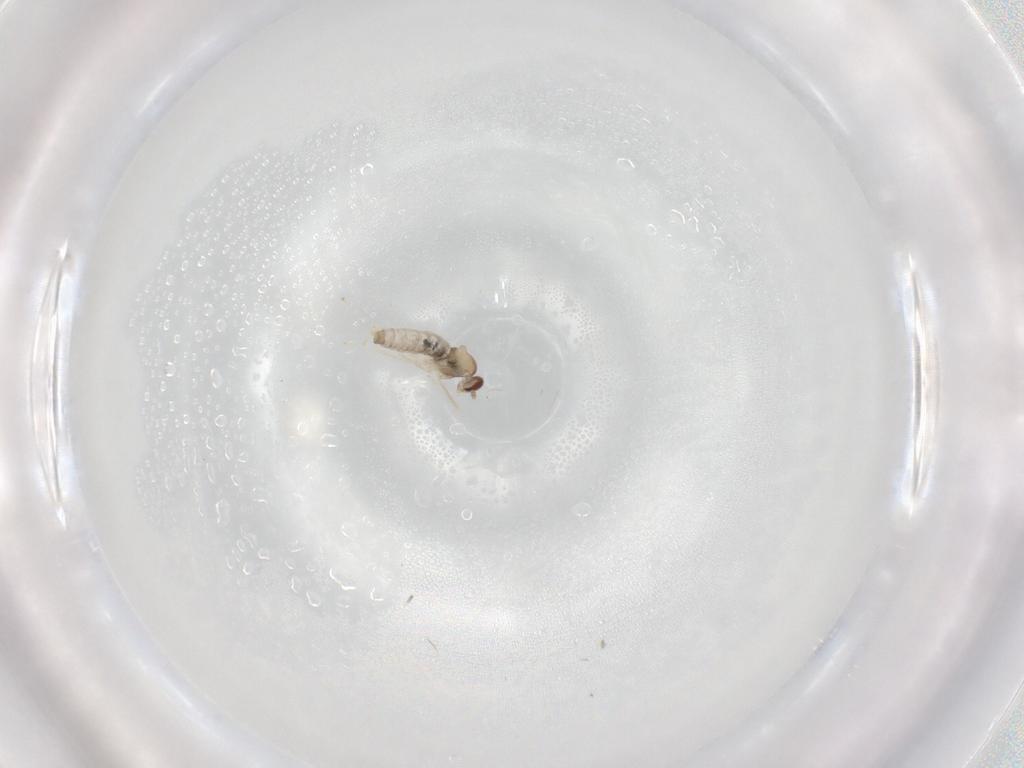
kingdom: Animalia
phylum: Arthropoda
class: Insecta
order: Diptera
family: Cecidomyiidae
